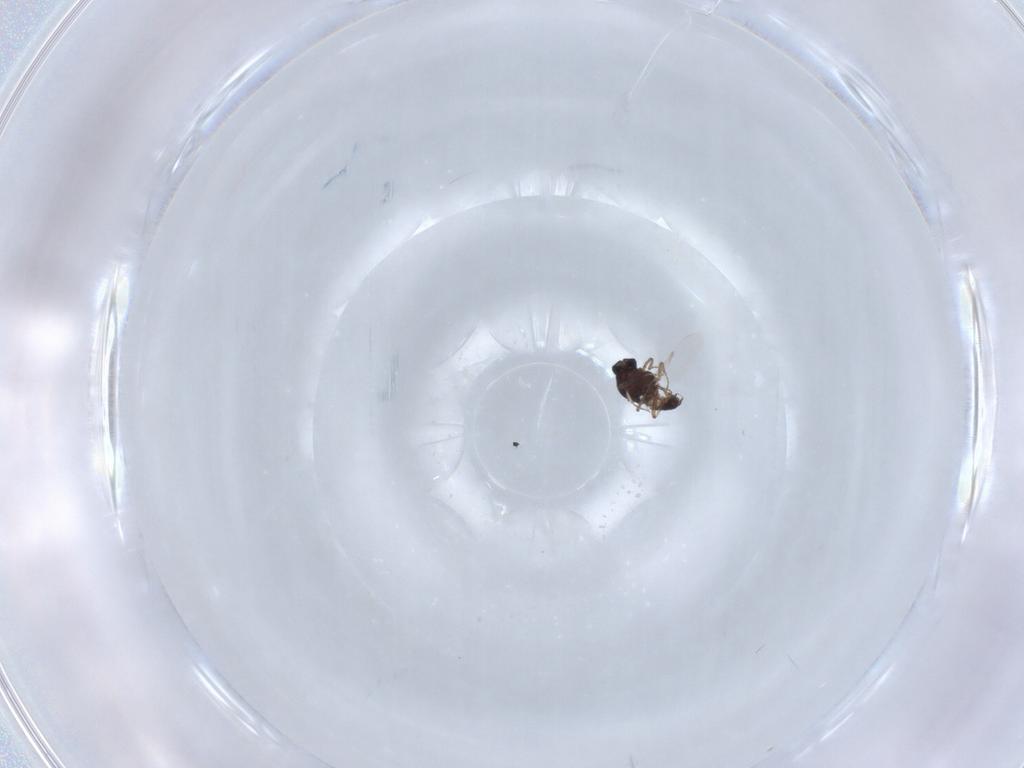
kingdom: Animalia
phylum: Arthropoda
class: Insecta
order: Diptera
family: Ceratopogonidae
